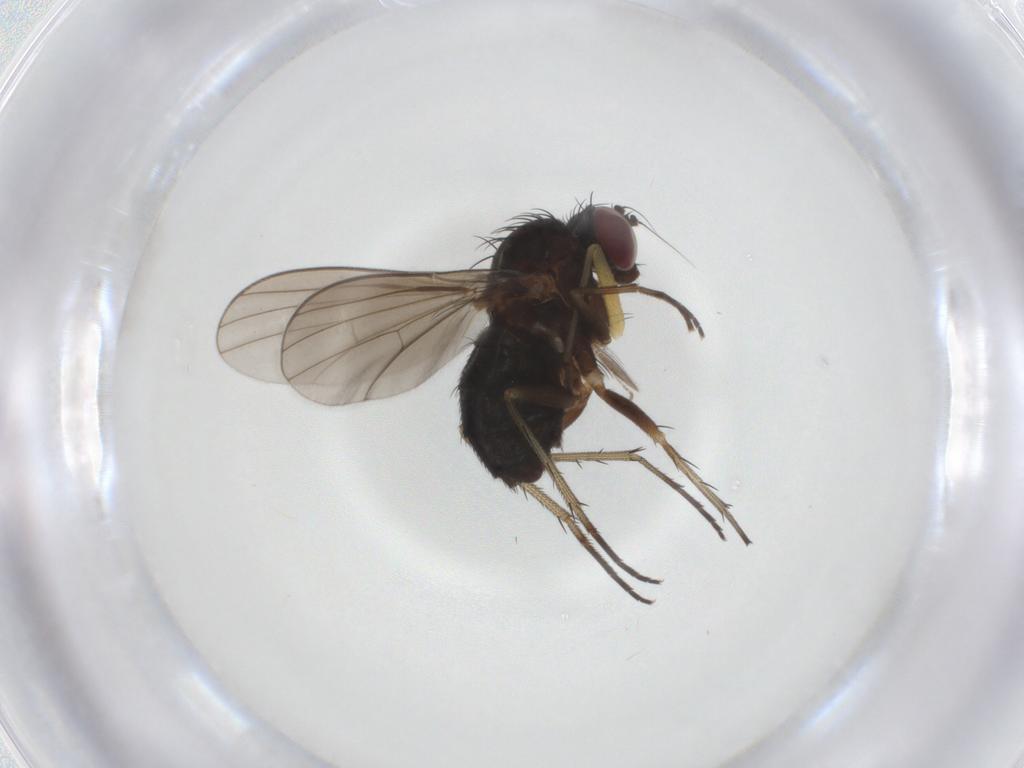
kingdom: Animalia
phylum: Arthropoda
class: Insecta
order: Diptera
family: Dolichopodidae
